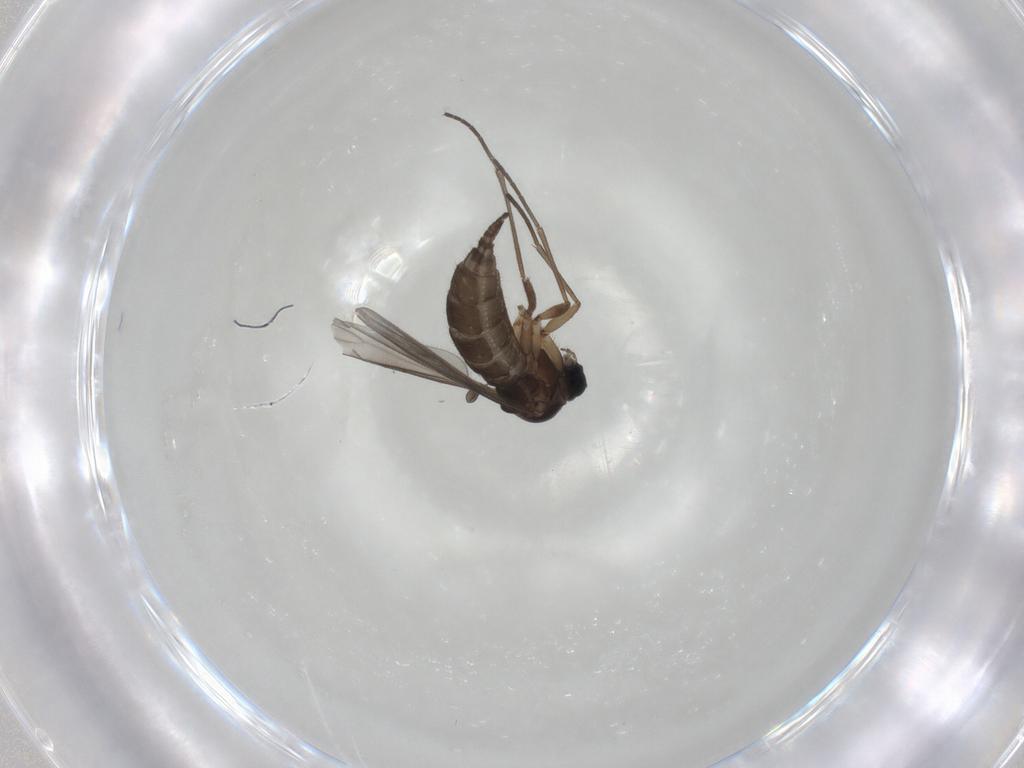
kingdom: Animalia
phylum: Arthropoda
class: Insecta
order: Diptera
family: Sciaridae
